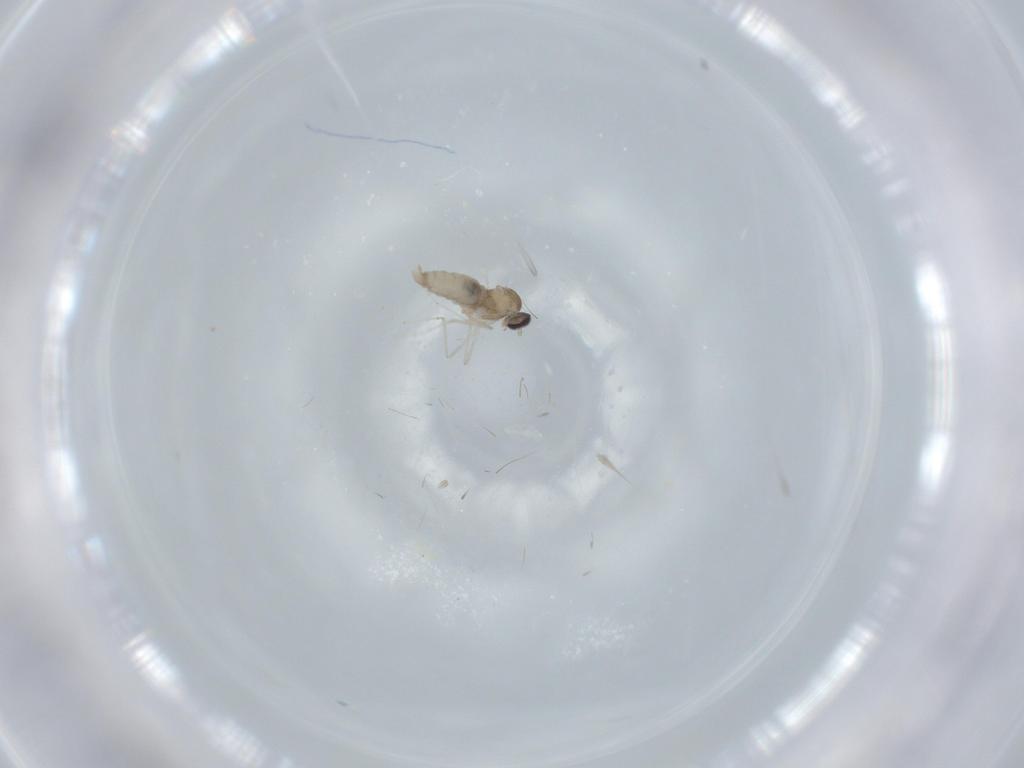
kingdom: Animalia
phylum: Arthropoda
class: Insecta
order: Diptera
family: Cecidomyiidae
